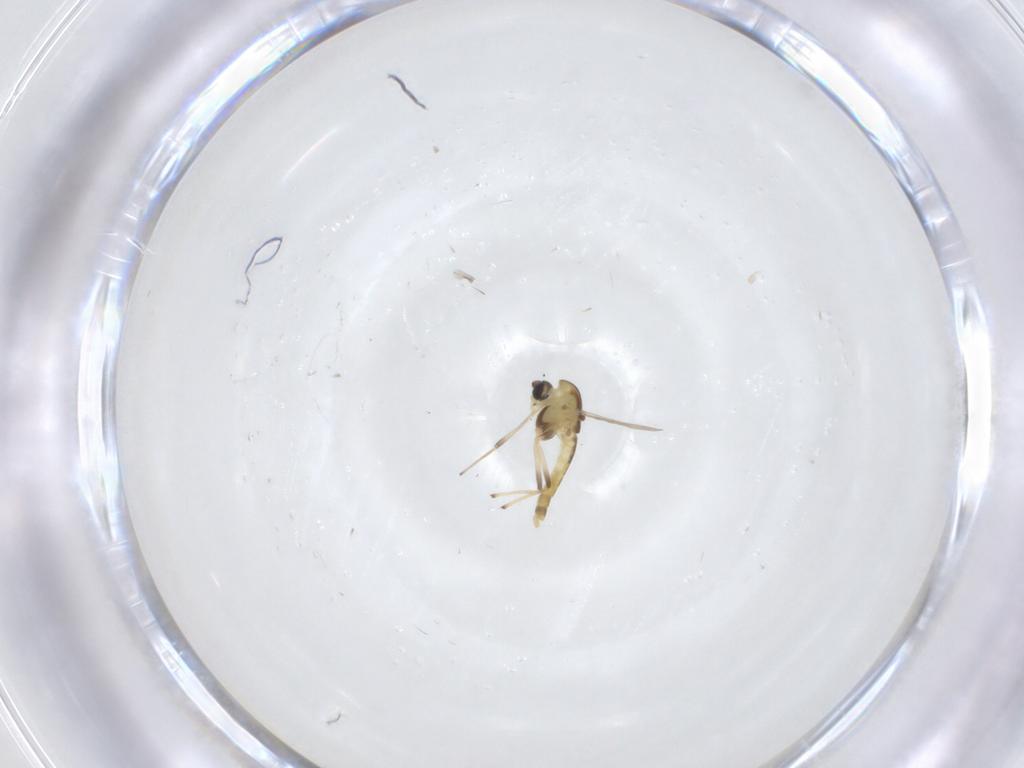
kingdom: Animalia
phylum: Arthropoda
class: Insecta
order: Diptera
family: Chironomidae
